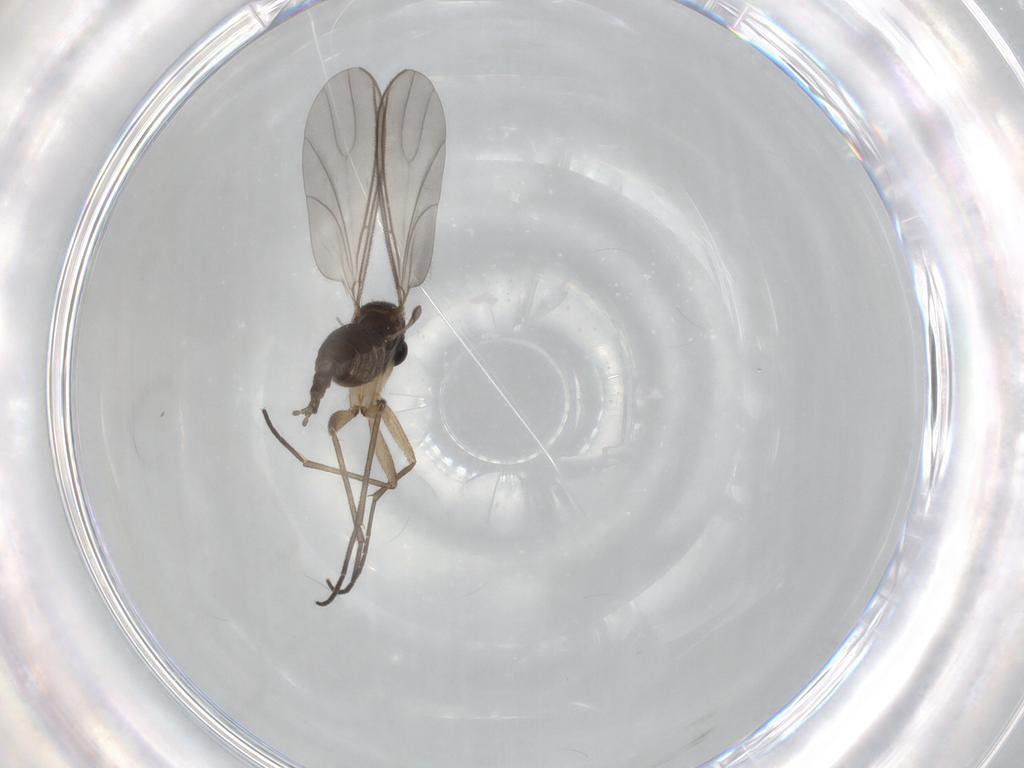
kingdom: Animalia
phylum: Arthropoda
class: Insecta
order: Diptera
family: Sciaridae
